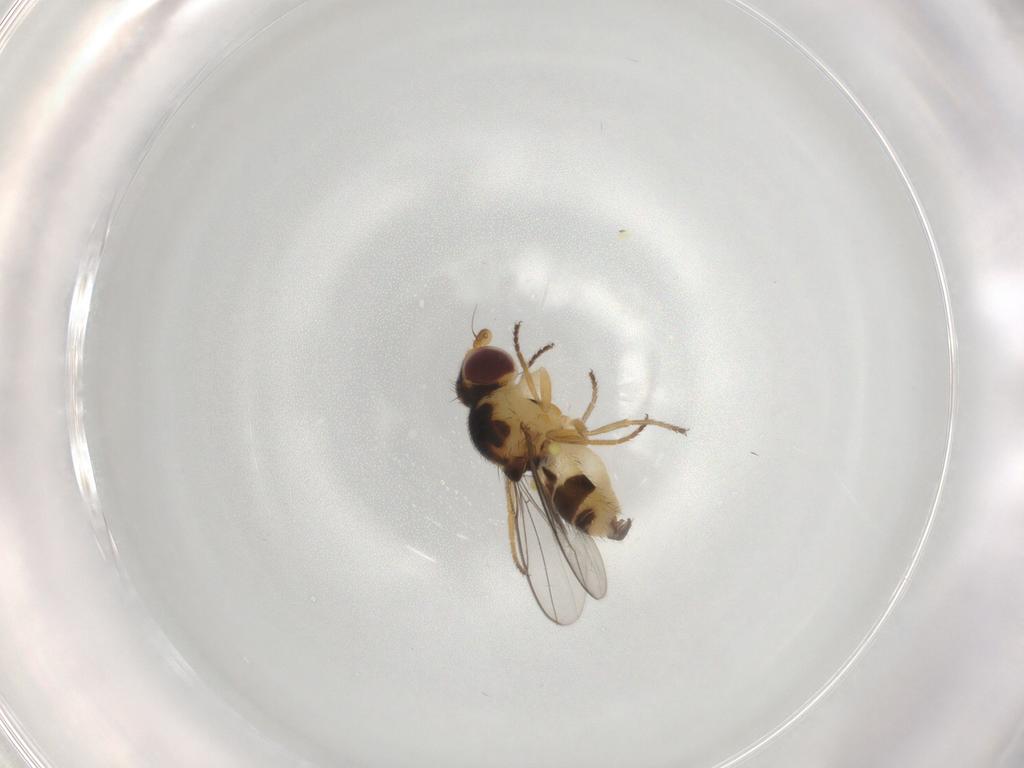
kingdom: Animalia
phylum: Arthropoda
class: Insecta
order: Diptera
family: Chloropidae
